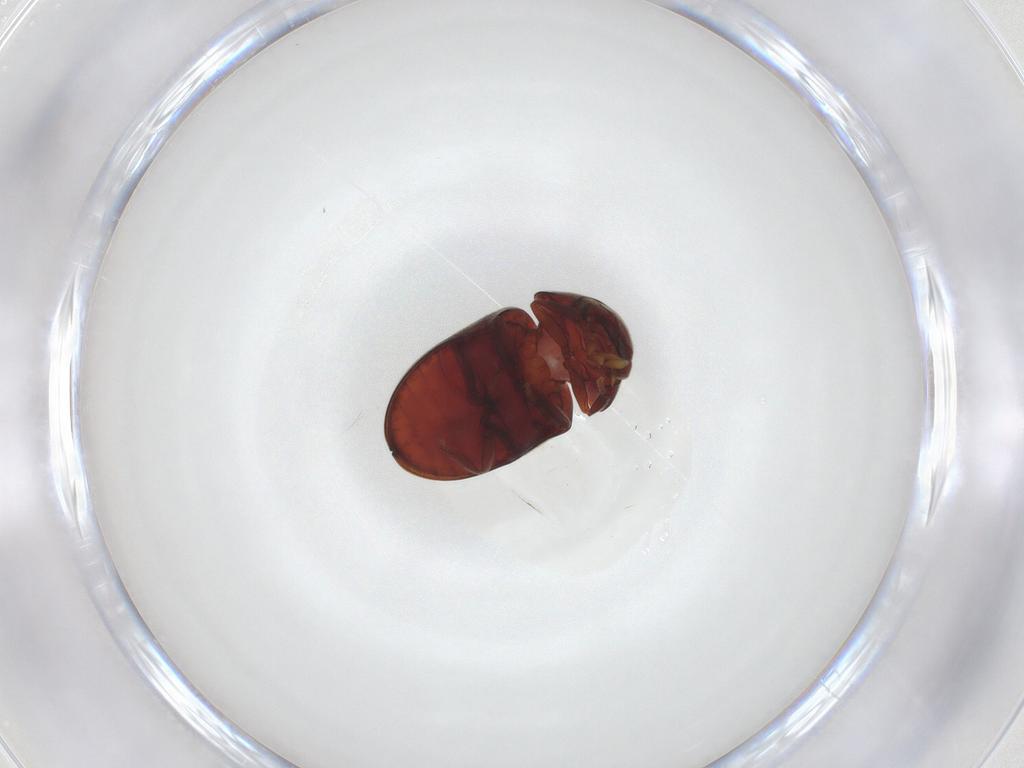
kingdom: Animalia
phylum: Arthropoda
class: Insecta
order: Coleoptera
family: Ptinidae
